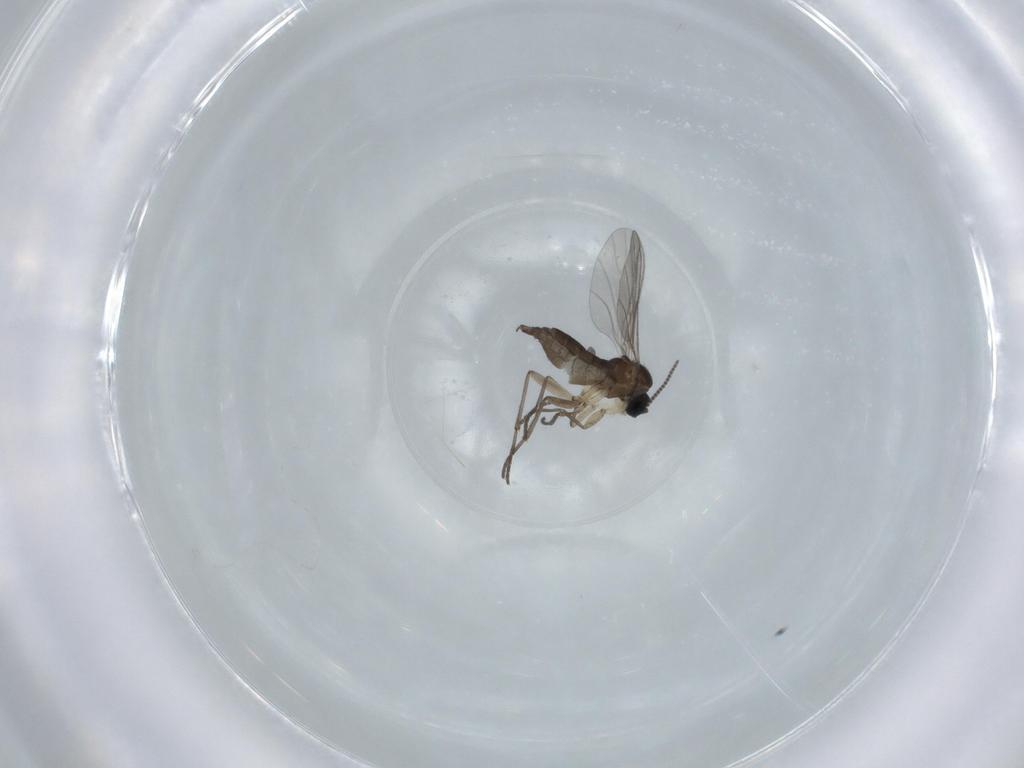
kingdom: Animalia
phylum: Arthropoda
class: Insecta
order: Diptera
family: Sciaridae
